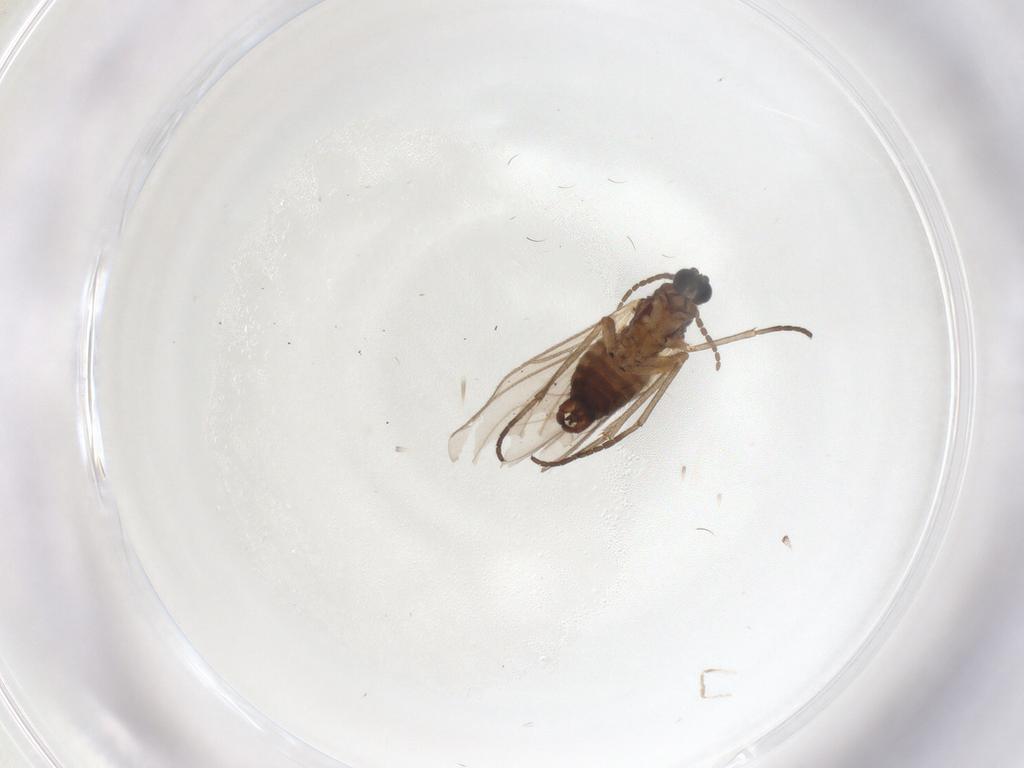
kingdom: Animalia
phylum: Arthropoda
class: Insecta
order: Diptera
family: Sciaridae
